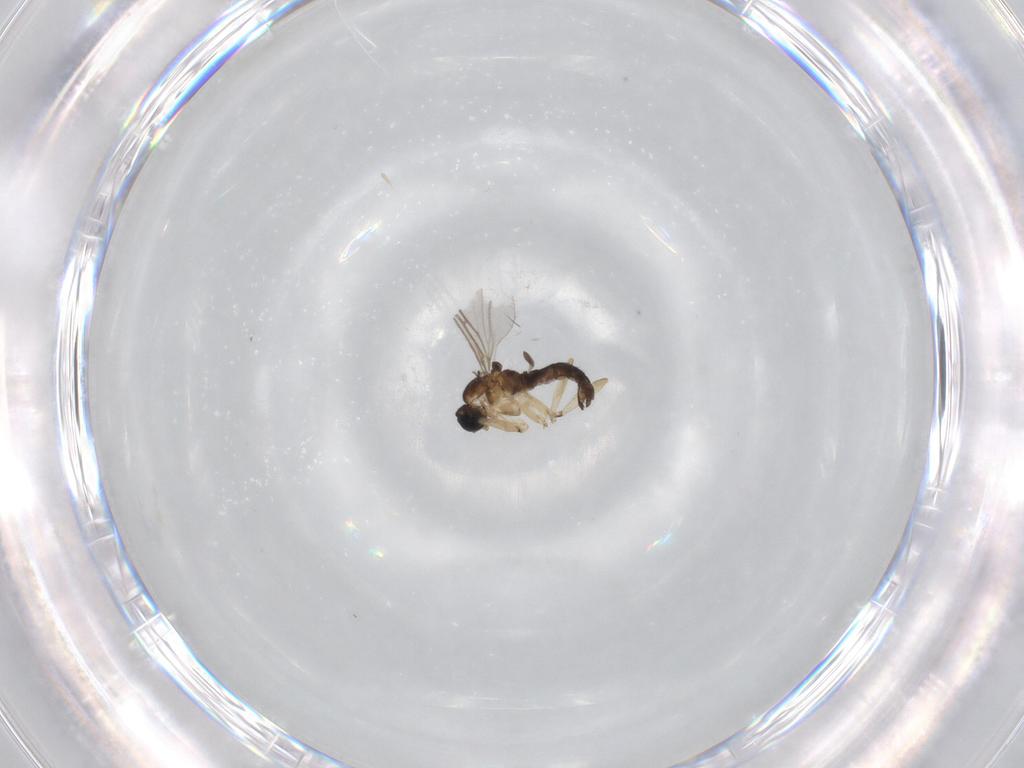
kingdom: Animalia
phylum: Arthropoda
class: Insecta
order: Diptera
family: Sciaridae
